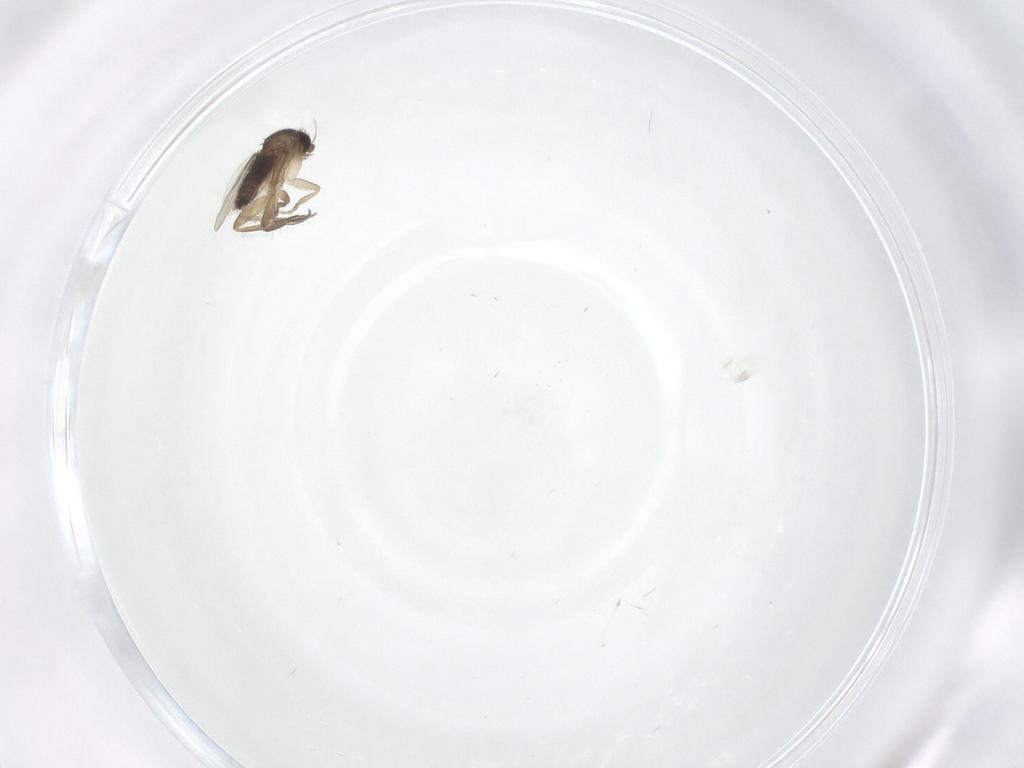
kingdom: Animalia
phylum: Arthropoda
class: Insecta
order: Diptera
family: Phoridae
